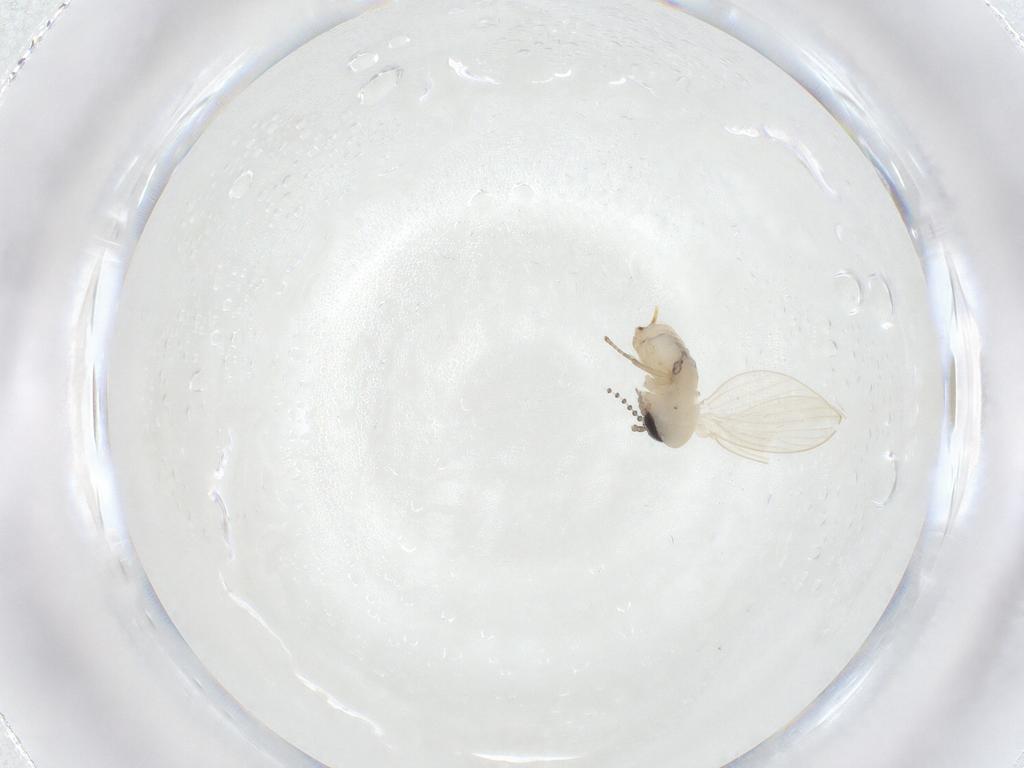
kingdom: Animalia
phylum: Arthropoda
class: Insecta
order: Diptera
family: Psychodidae
